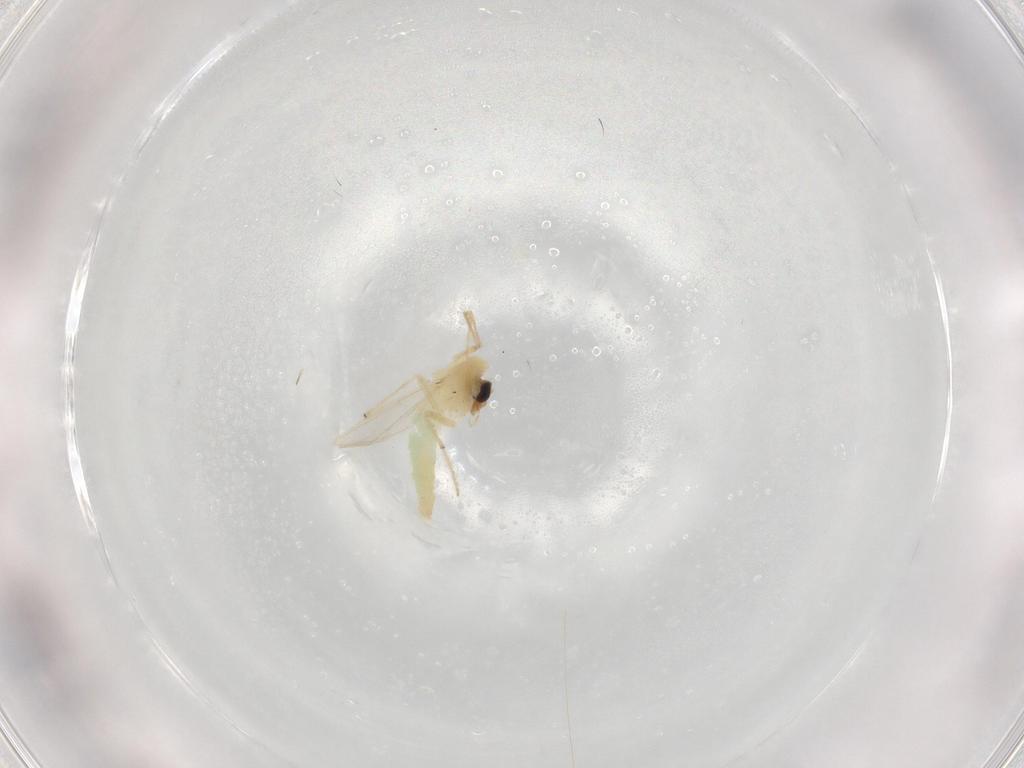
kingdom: Animalia
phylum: Arthropoda
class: Insecta
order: Diptera
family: Chironomidae
